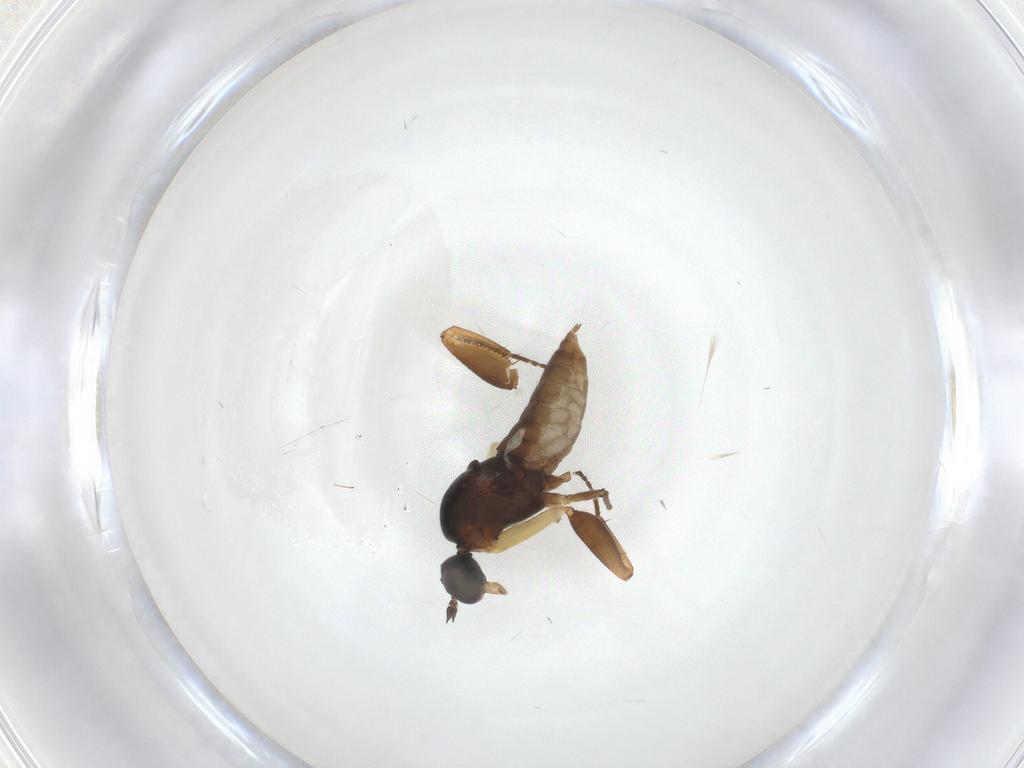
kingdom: Animalia
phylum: Arthropoda
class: Insecta
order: Diptera
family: Empididae
